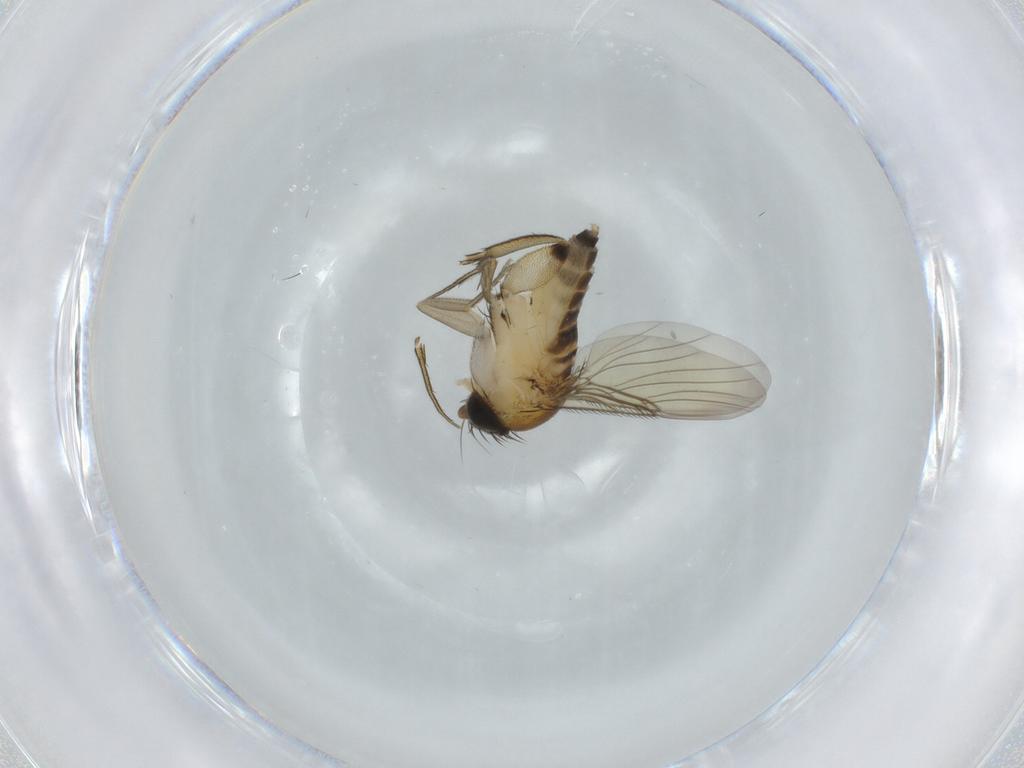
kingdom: Animalia
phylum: Arthropoda
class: Insecta
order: Diptera
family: Phoridae
